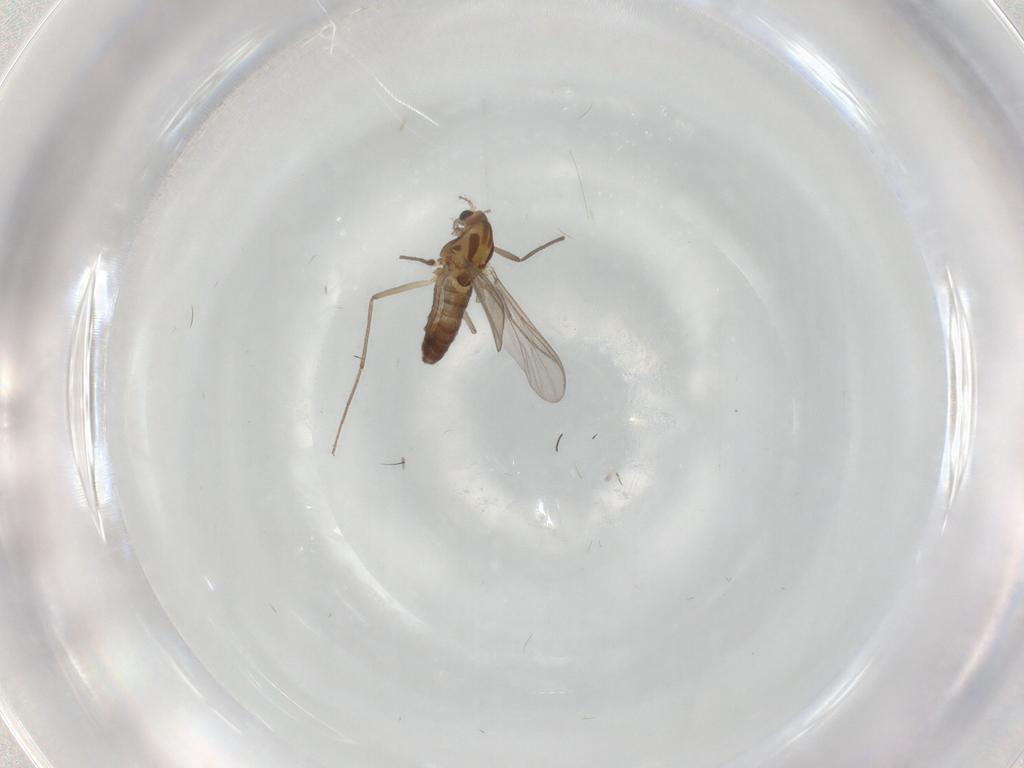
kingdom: Animalia
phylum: Arthropoda
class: Insecta
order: Diptera
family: Chironomidae
